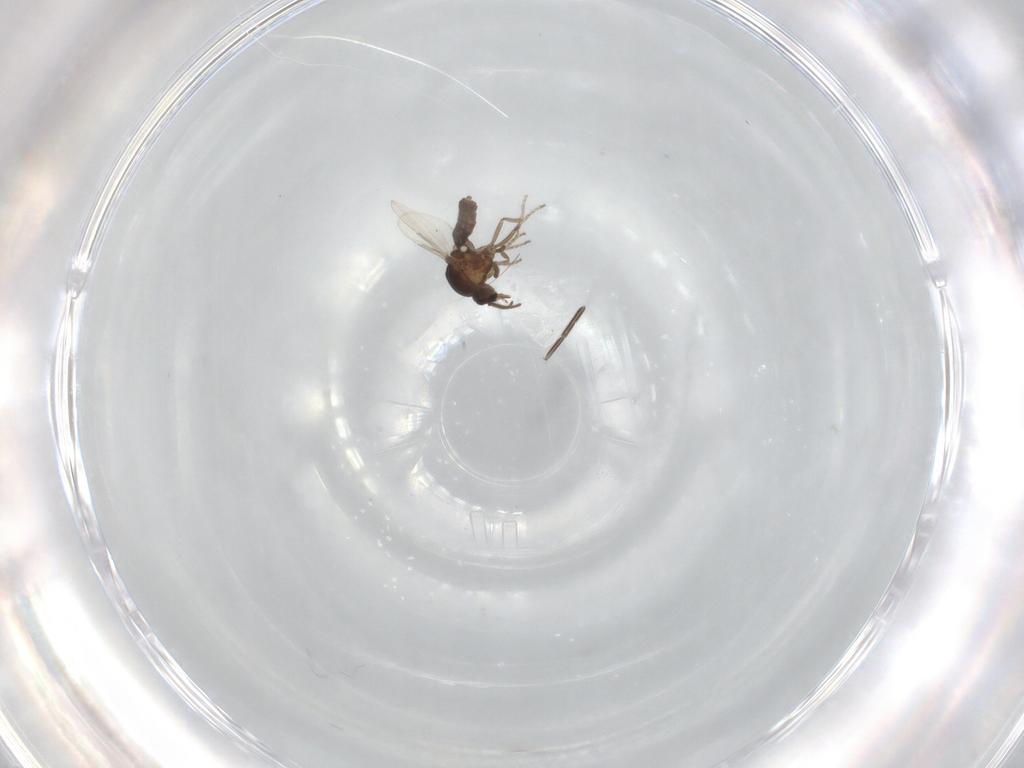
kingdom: Animalia
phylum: Arthropoda
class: Insecta
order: Diptera
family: Ceratopogonidae
